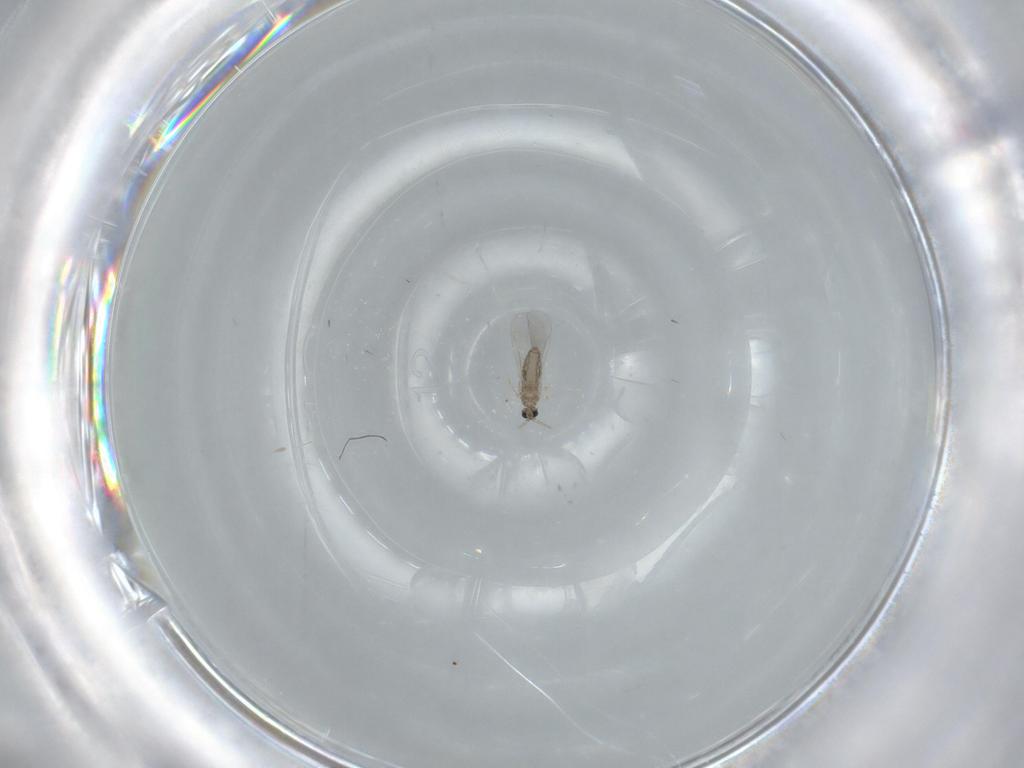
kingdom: Animalia
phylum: Arthropoda
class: Insecta
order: Diptera
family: Cecidomyiidae
